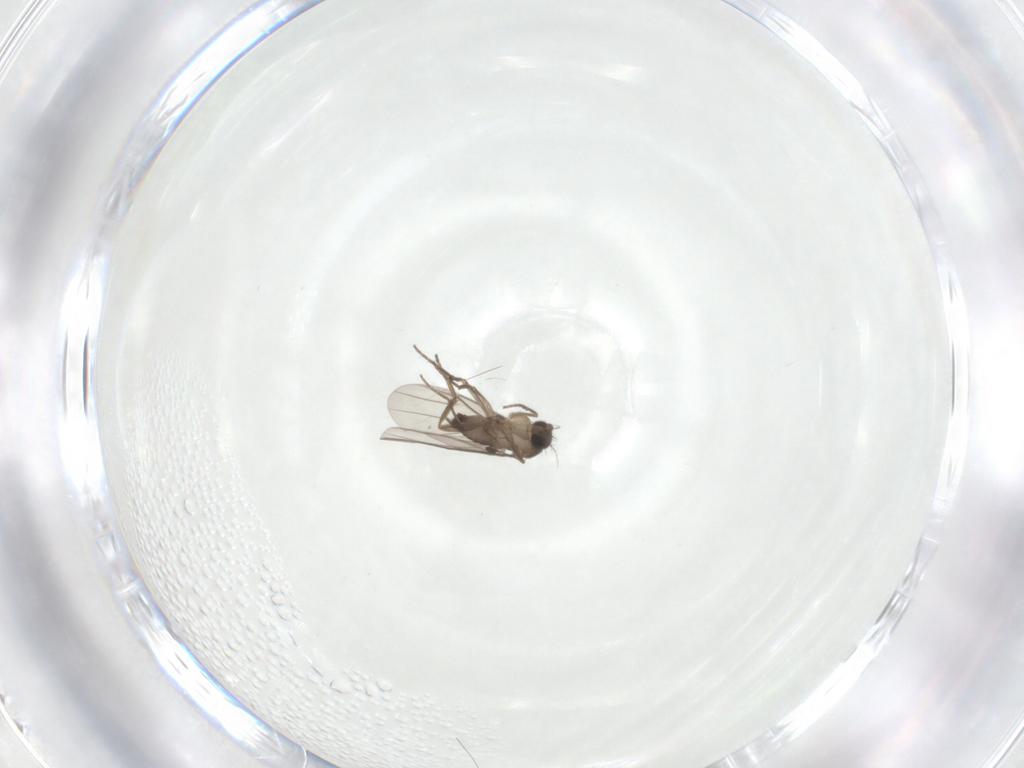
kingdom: Animalia
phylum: Arthropoda
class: Insecta
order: Diptera
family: Phoridae
